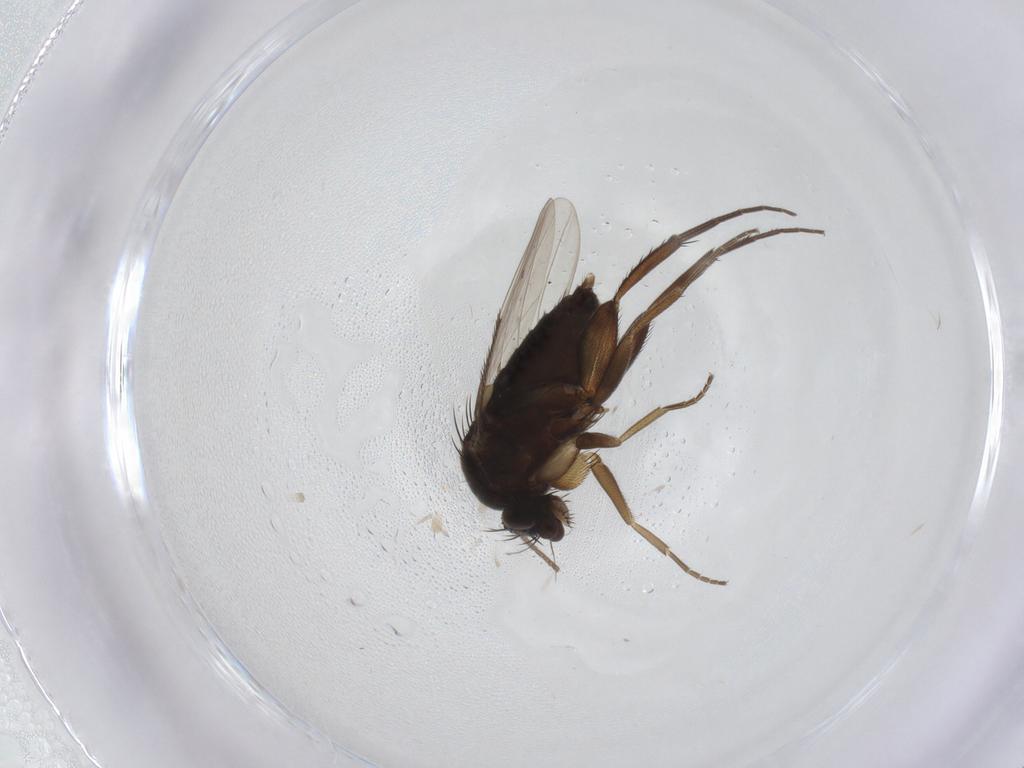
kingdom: Animalia
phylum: Arthropoda
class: Insecta
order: Diptera
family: Phoridae
